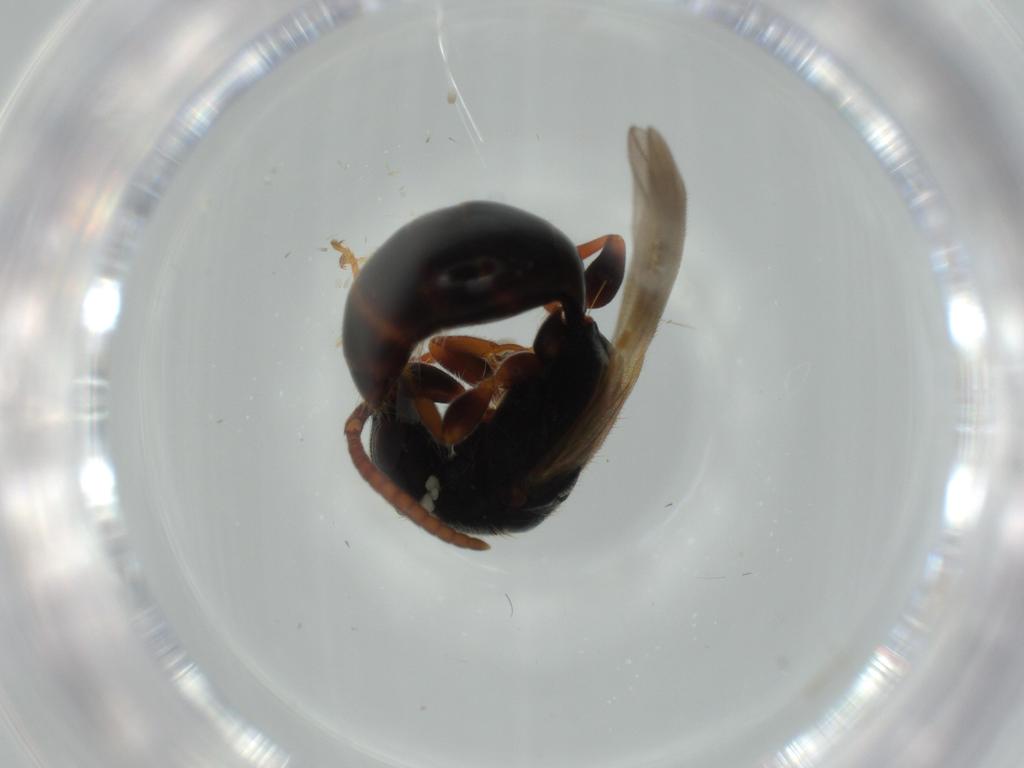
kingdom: Animalia
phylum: Arthropoda
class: Insecta
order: Hymenoptera
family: Bethylidae
